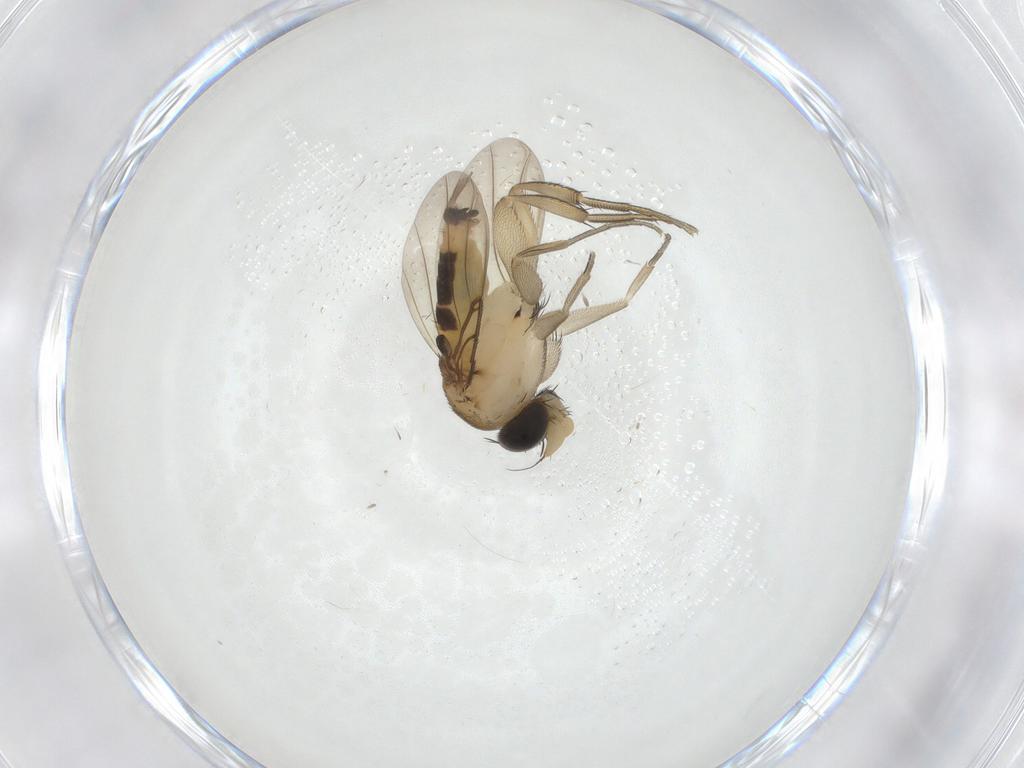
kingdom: Animalia
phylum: Arthropoda
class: Insecta
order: Diptera
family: Phoridae
